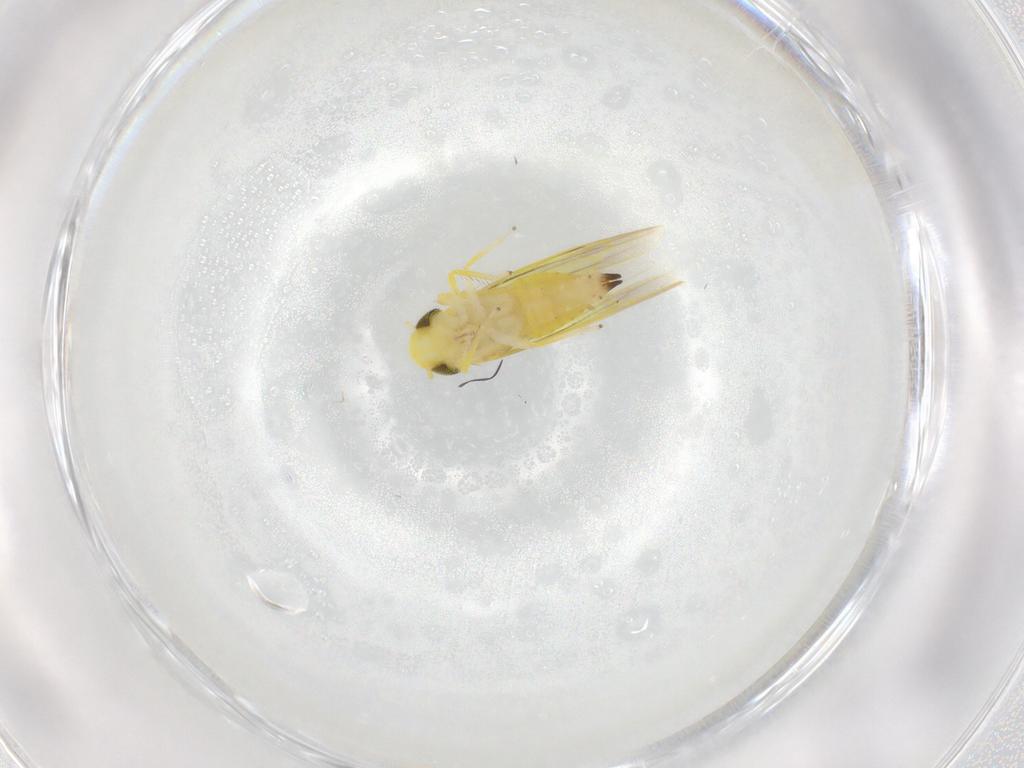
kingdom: Animalia
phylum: Arthropoda
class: Insecta
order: Hemiptera
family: Cicadellidae
